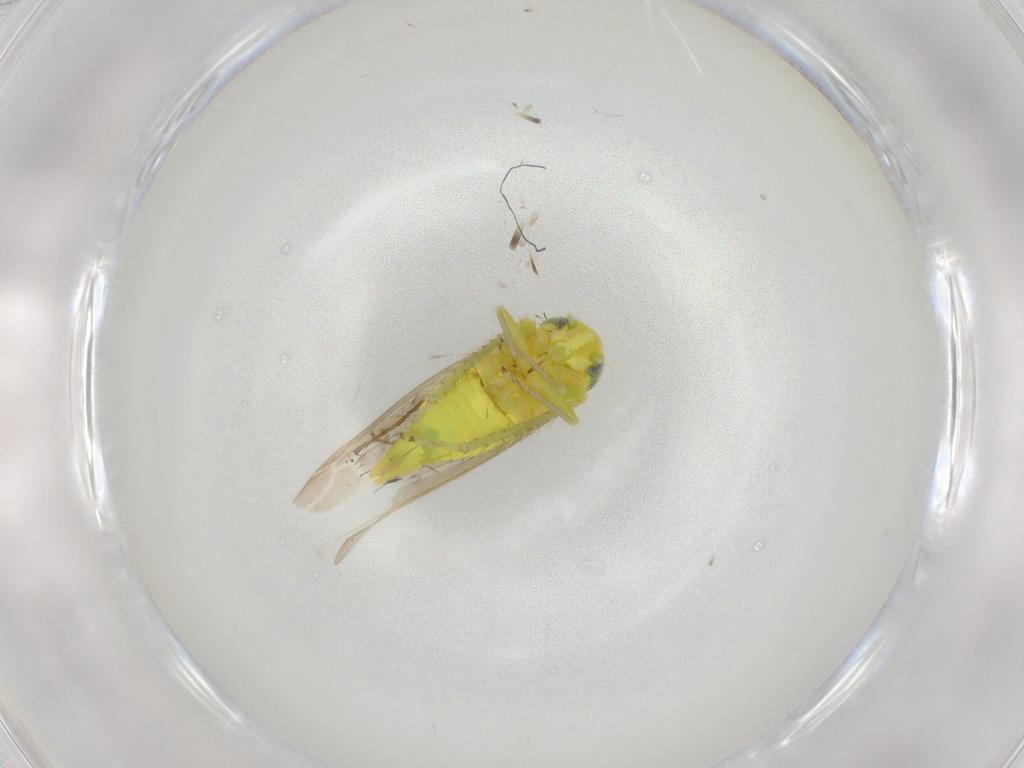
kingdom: Animalia
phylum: Arthropoda
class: Insecta
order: Hemiptera
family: Cicadellidae
